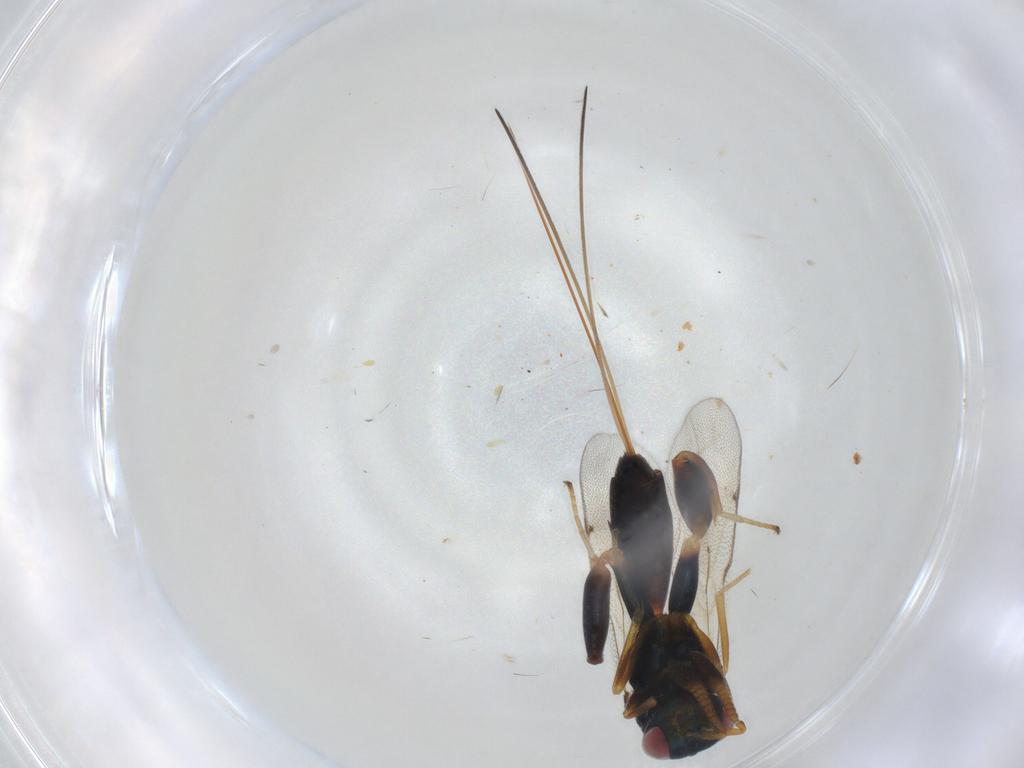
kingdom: Animalia
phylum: Arthropoda
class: Insecta
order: Hymenoptera
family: Torymidae
